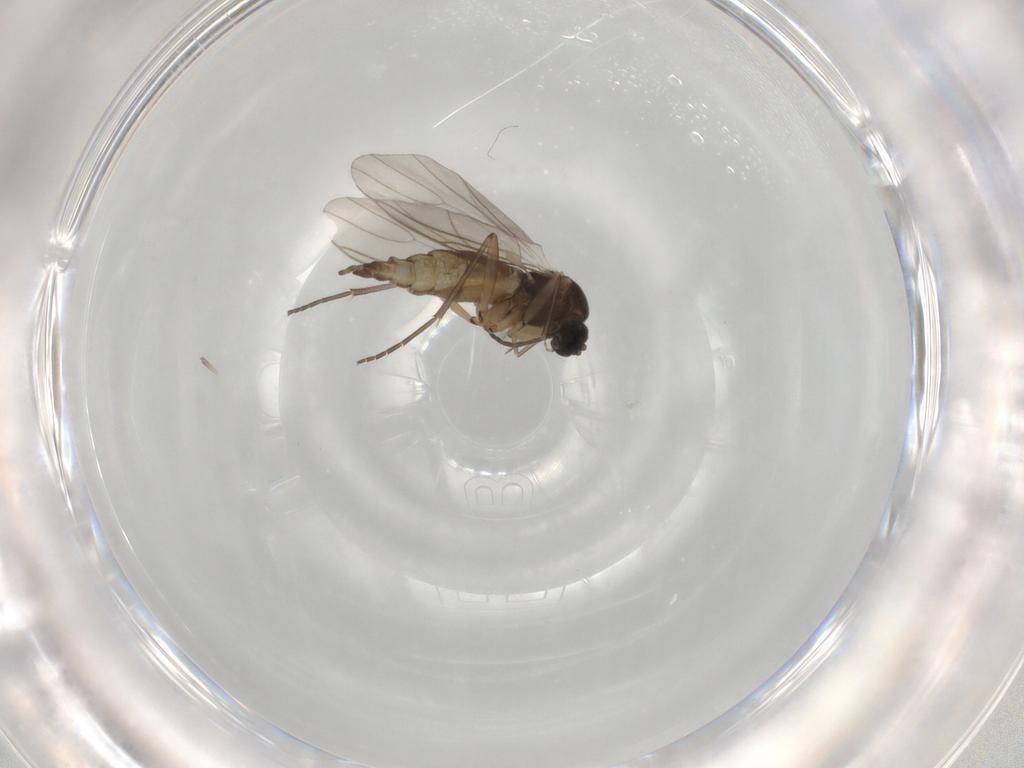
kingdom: Animalia
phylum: Arthropoda
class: Insecta
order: Diptera
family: Sciaridae
